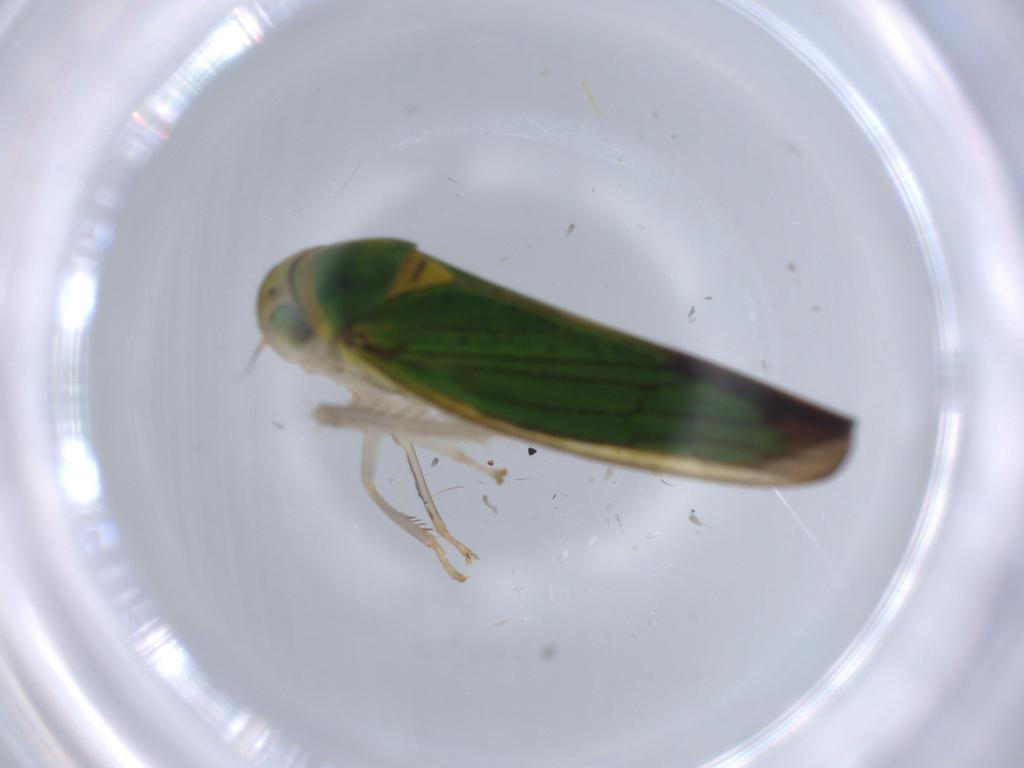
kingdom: Animalia
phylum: Arthropoda
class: Insecta
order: Hemiptera
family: Cicadellidae
